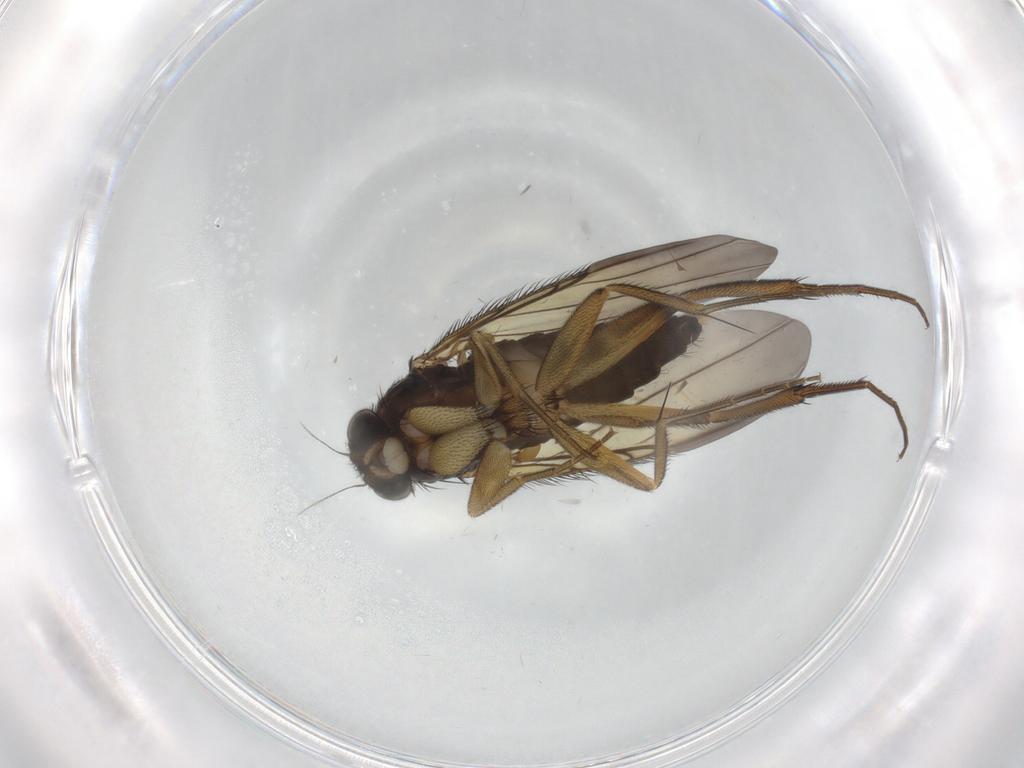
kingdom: Animalia
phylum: Arthropoda
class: Insecta
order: Diptera
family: Phoridae
